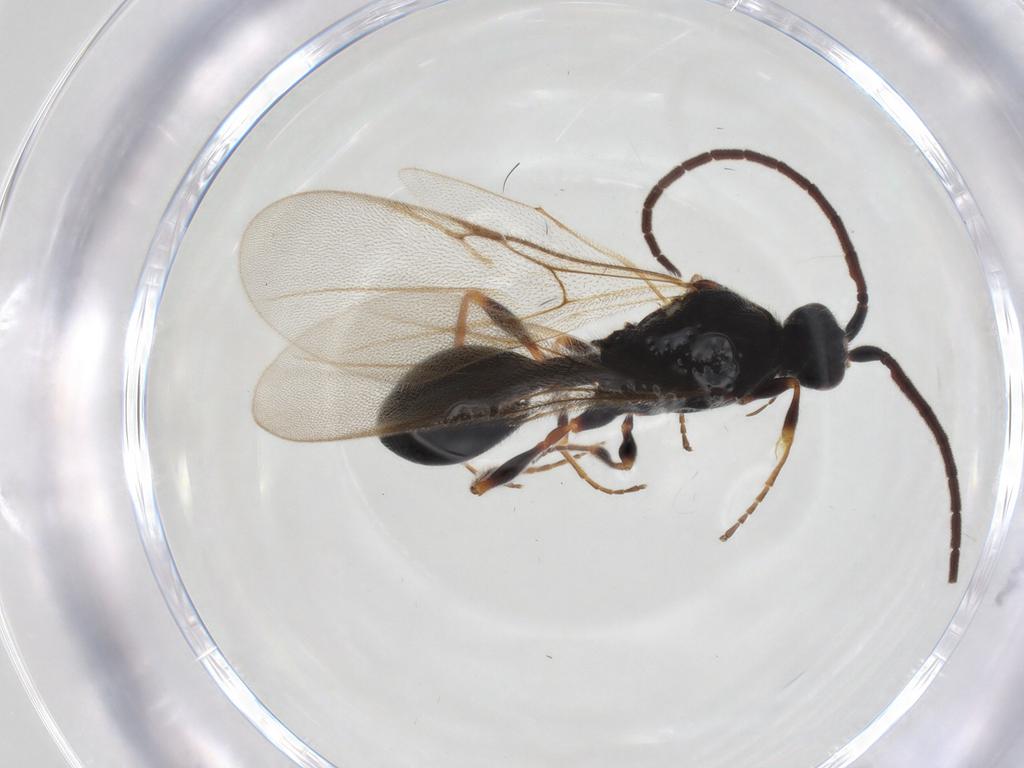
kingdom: Animalia
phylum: Arthropoda
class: Insecta
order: Hymenoptera
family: Diapriidae
